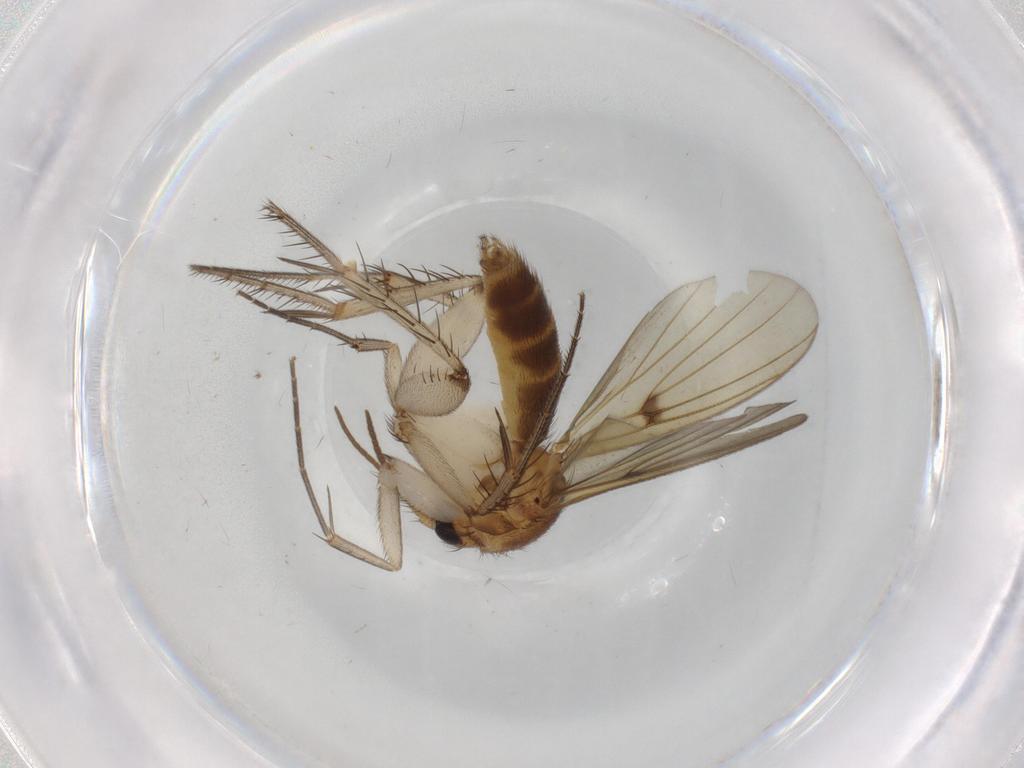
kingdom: Animalia
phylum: Arthropoda
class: Insecta
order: Diptera
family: Mycetophilidae
